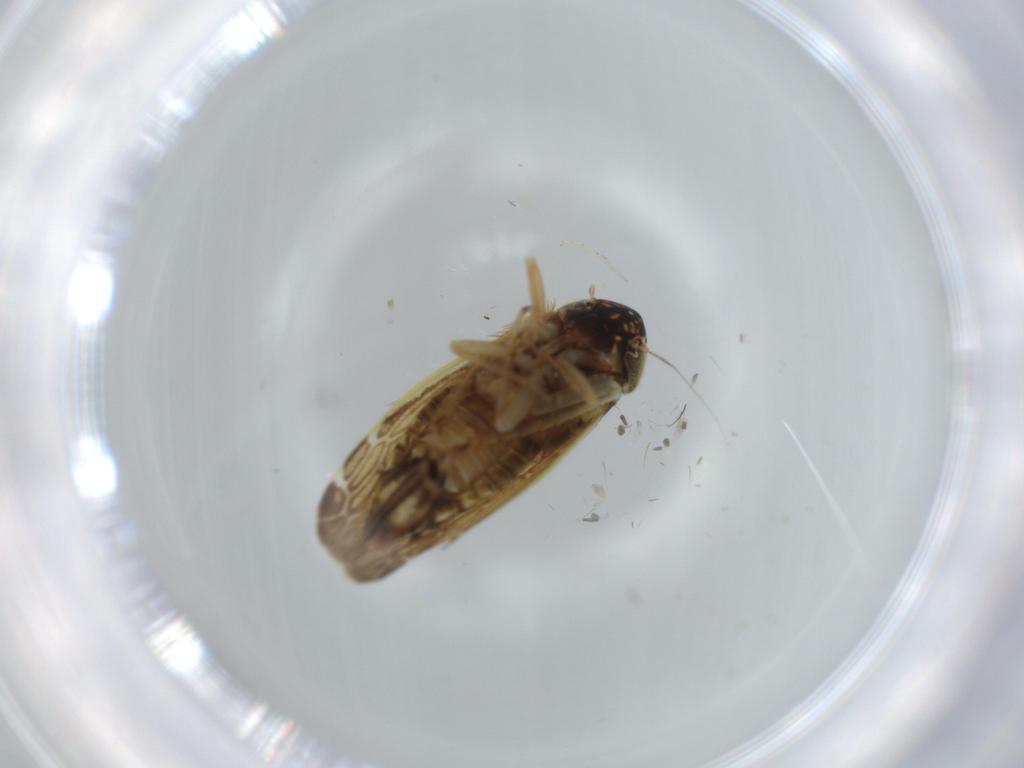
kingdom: Animalia
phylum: Arthropoda
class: Insecta
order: Hemiptera
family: Cicadellidae
